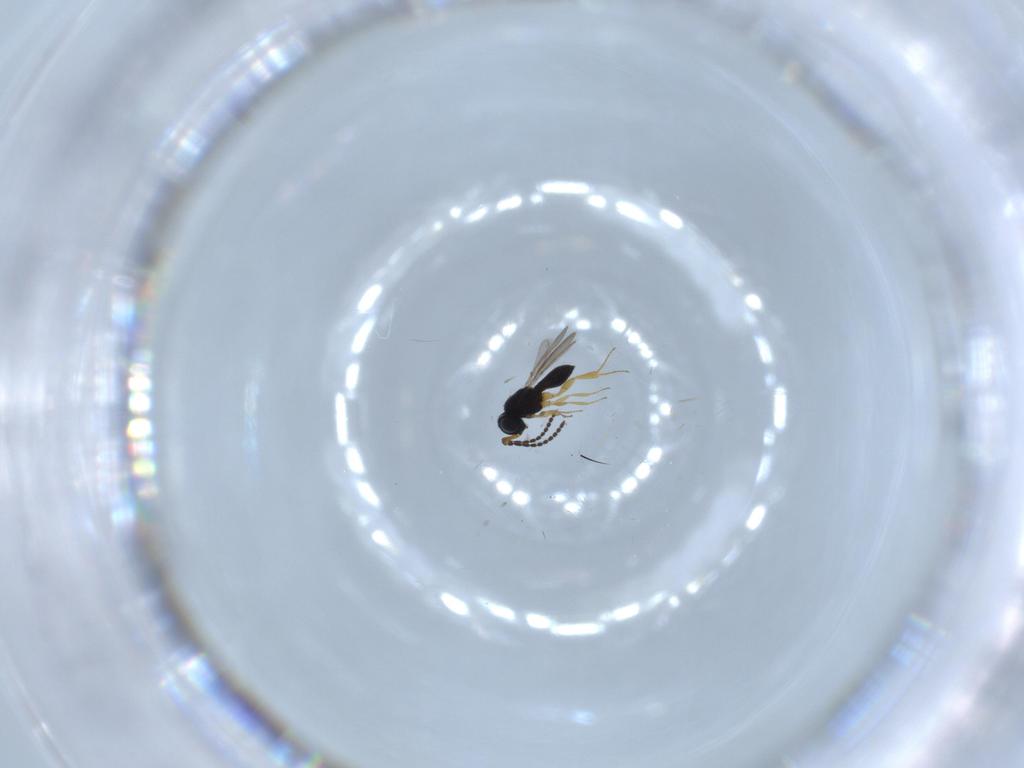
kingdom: Animalia
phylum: Arthropoda
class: Insecta
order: Hymenoptera
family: Scelionidae
